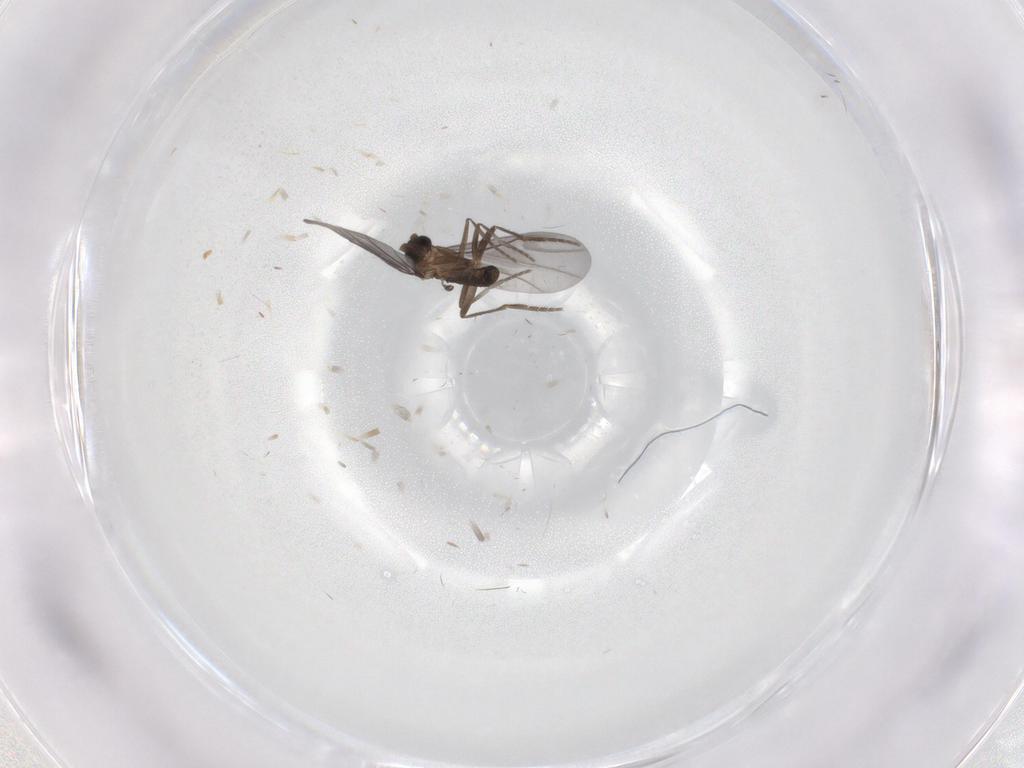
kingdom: Animalia
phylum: Arthropoda
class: Insecta
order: Diptera
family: Phoridae
